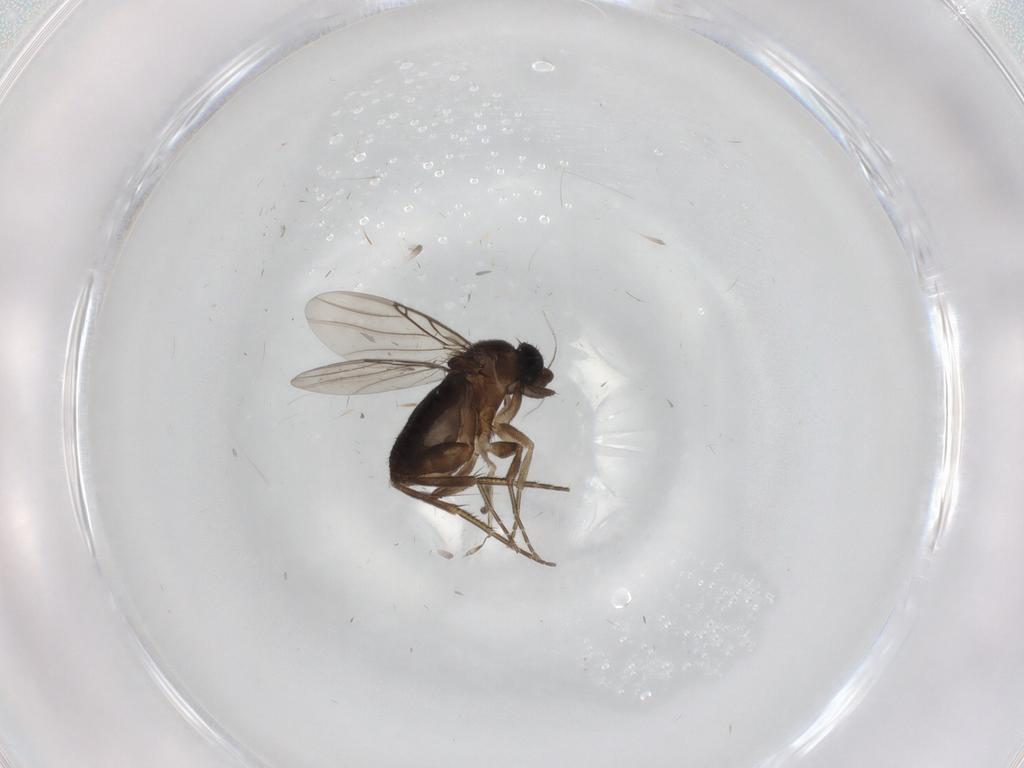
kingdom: Animalia
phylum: Arthropoda
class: Insecta
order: Diptera
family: Phoridae
